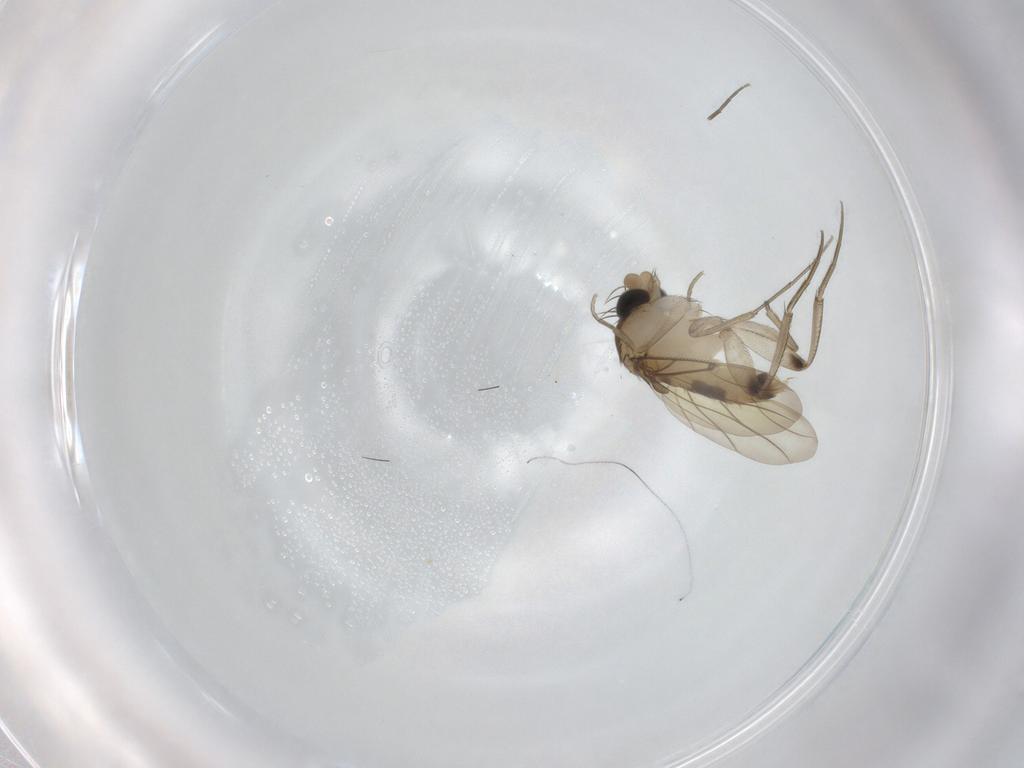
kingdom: Animalia
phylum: Arthropoda
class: Insecta
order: Diptera
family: Phoridae
